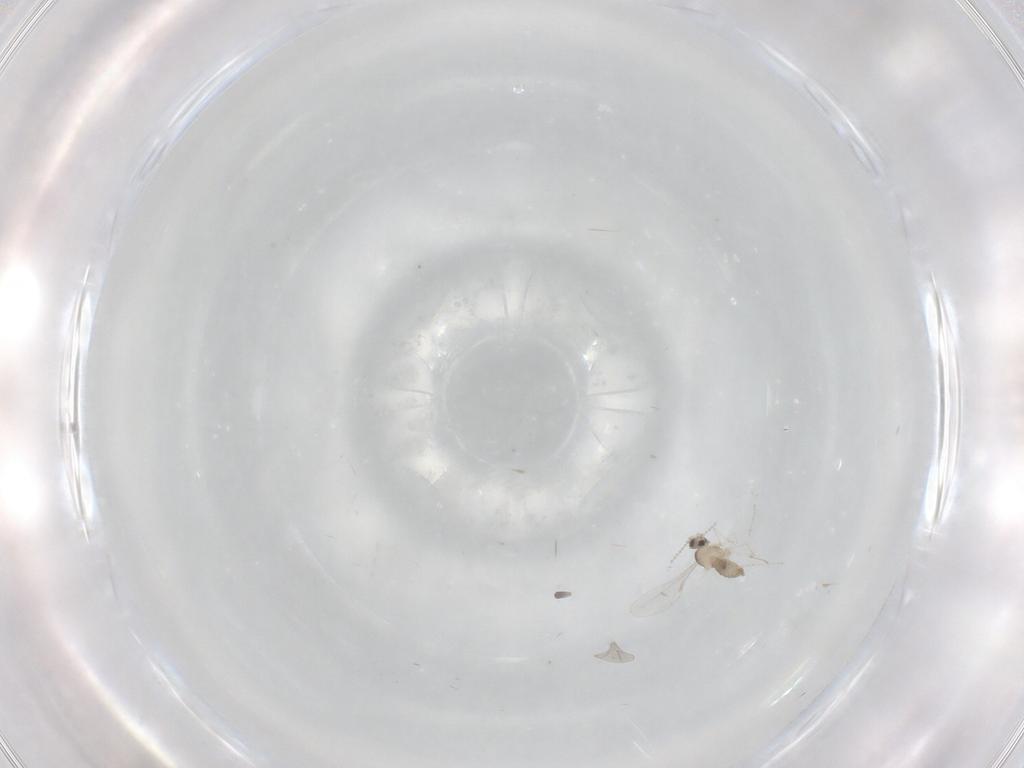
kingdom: Animalia
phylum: Arthropoda
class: Insecta
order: Diptera
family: Cecidomyiidae
